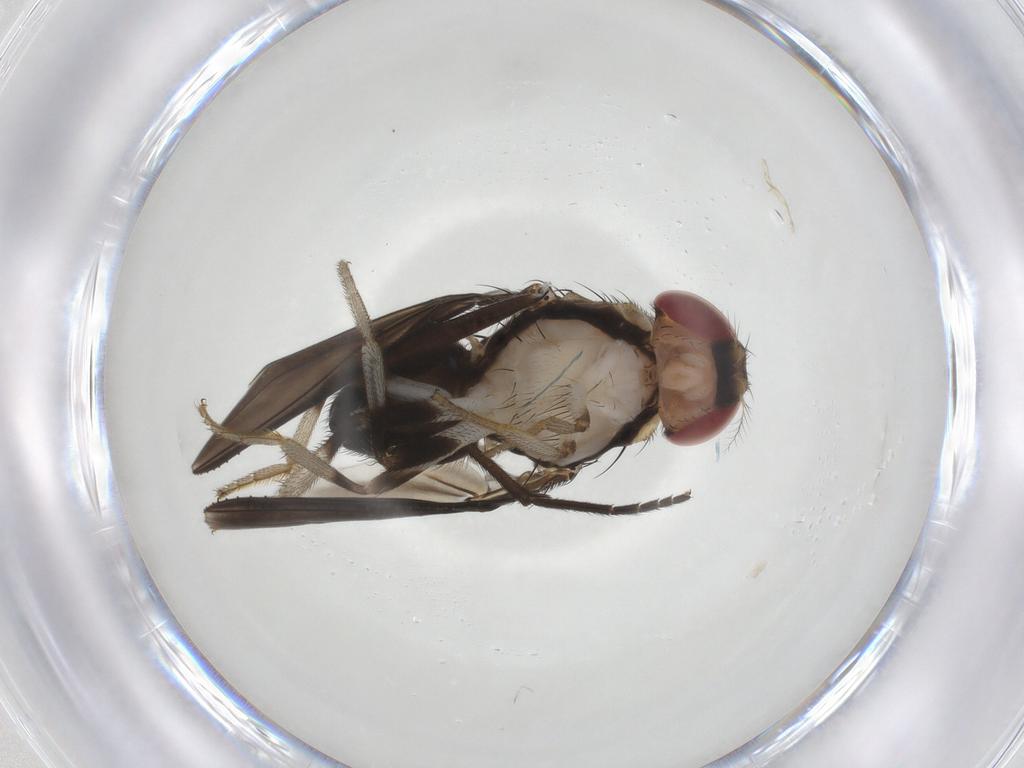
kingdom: Animalia
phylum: Arthropoda
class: Insecta
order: Diptera
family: Drosophilidae
